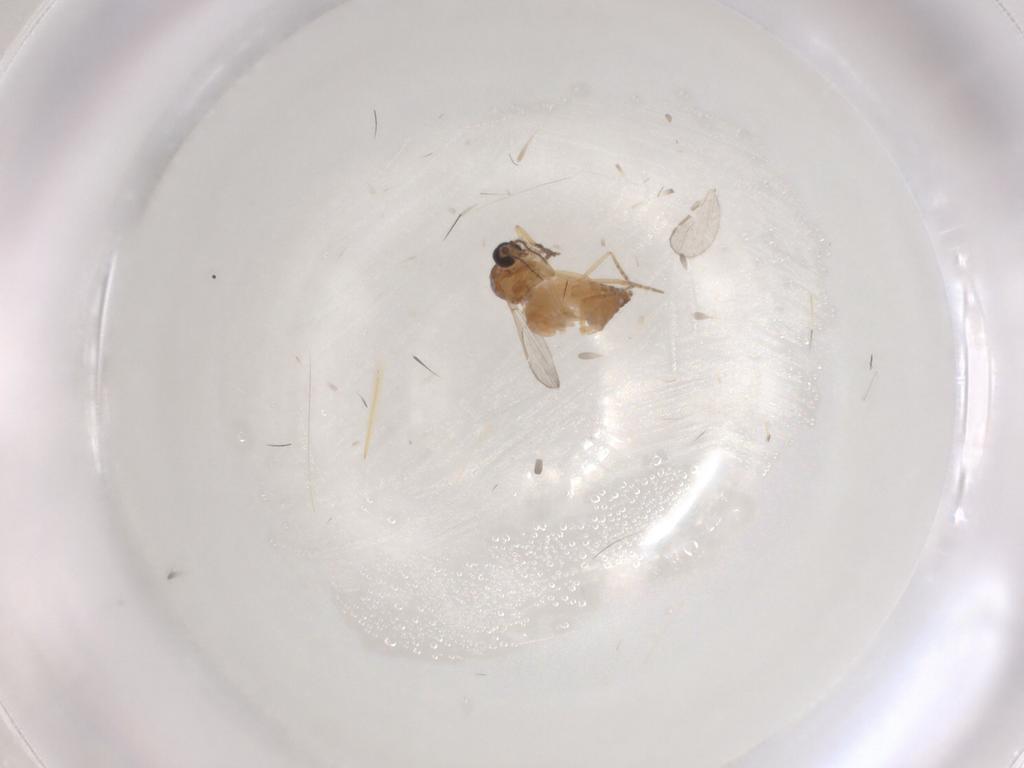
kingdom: Animalia
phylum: Arthropoda
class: Insecta
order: Diptera
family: Ceratopogonidae
